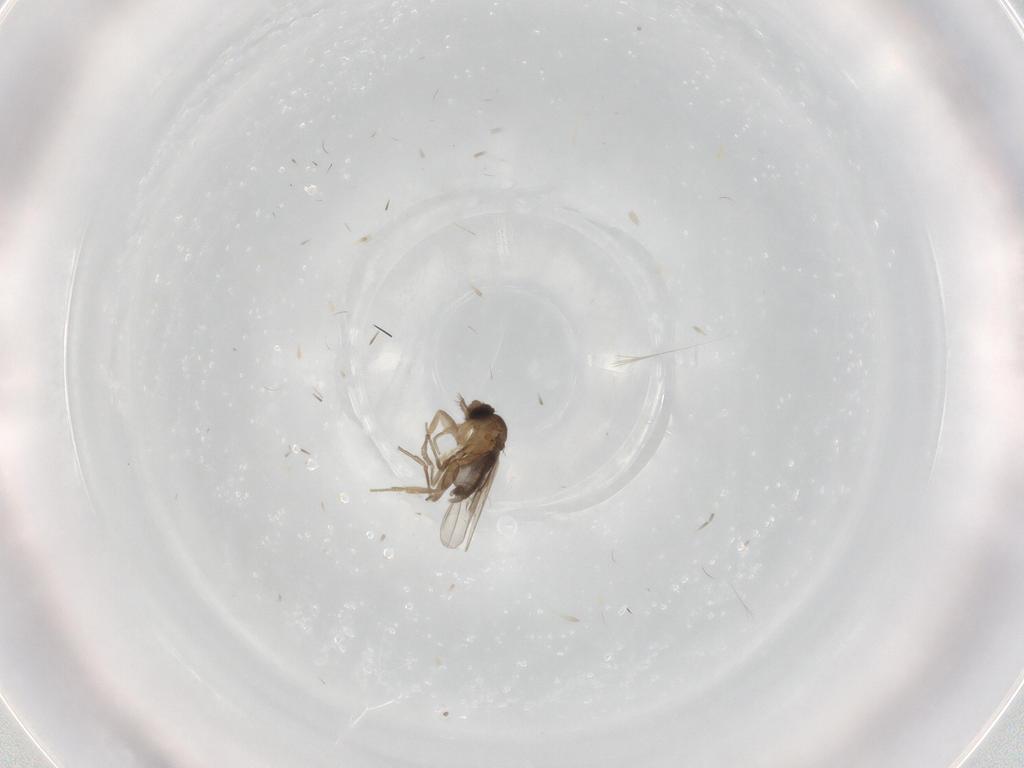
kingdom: Animalia
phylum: Arthropoda
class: Insecta
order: Diptera
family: Phoridae
